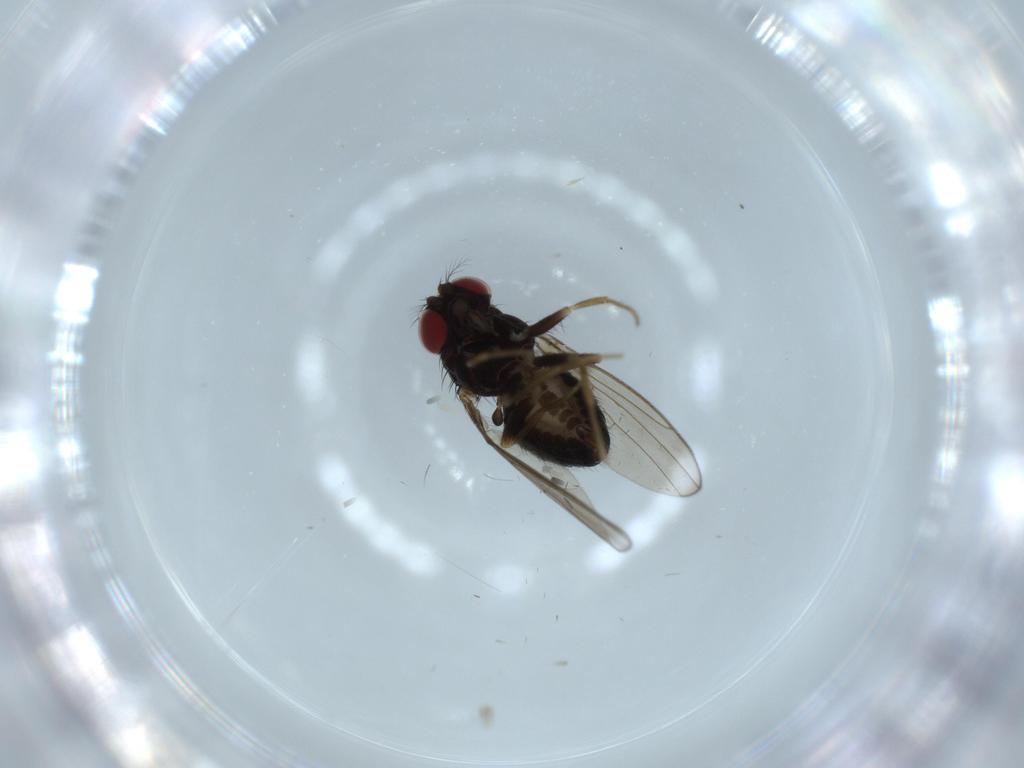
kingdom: Animalia
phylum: Arthropoda
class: Insecta
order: Diptera
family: Drosophilidae
